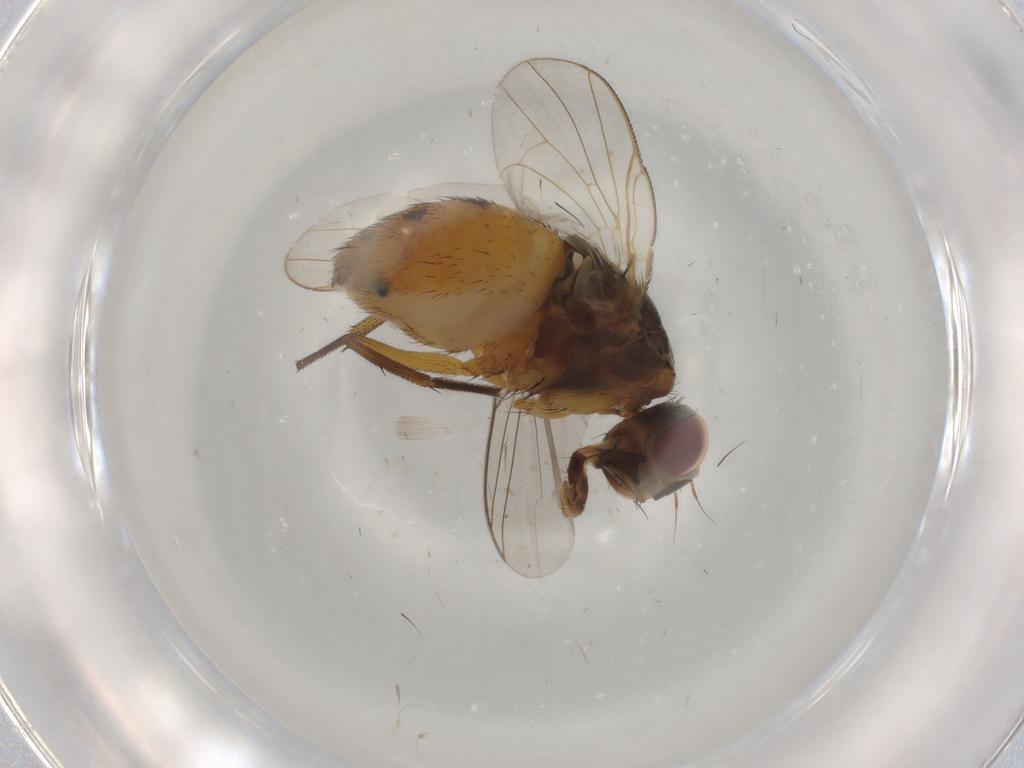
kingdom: Animalia
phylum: Arthropoda
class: Insecta
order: Diptera
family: Muscidae
